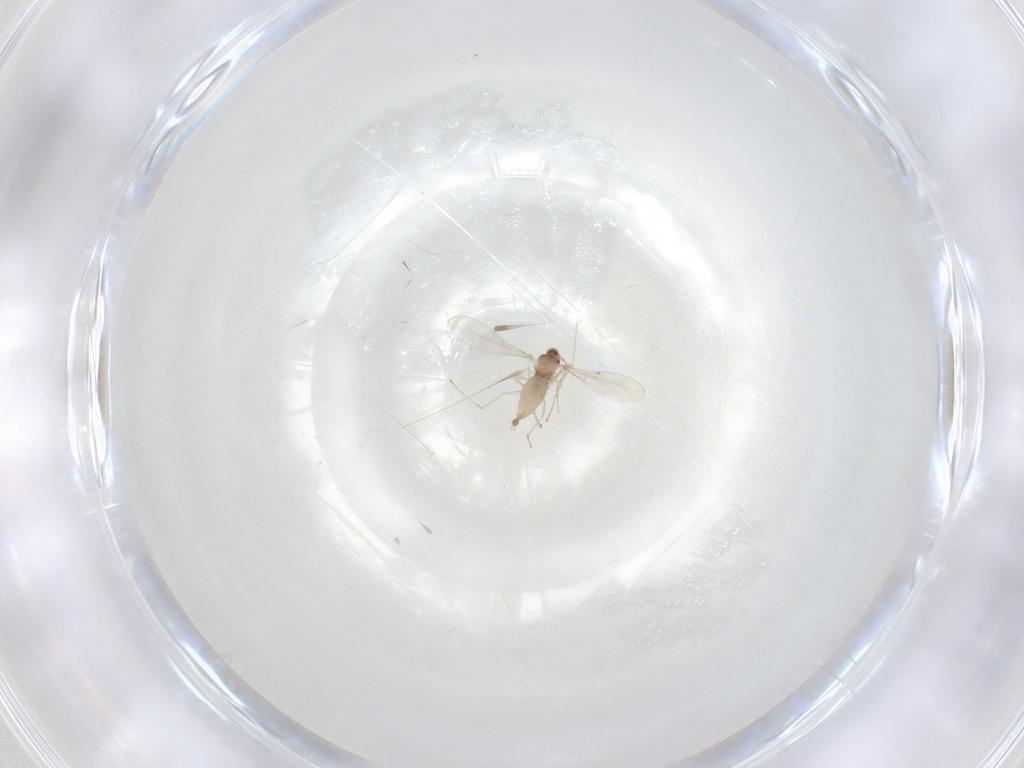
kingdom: Animalia
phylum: Arthropoda
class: Insecta
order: Diptera
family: Cecidomyiidae
